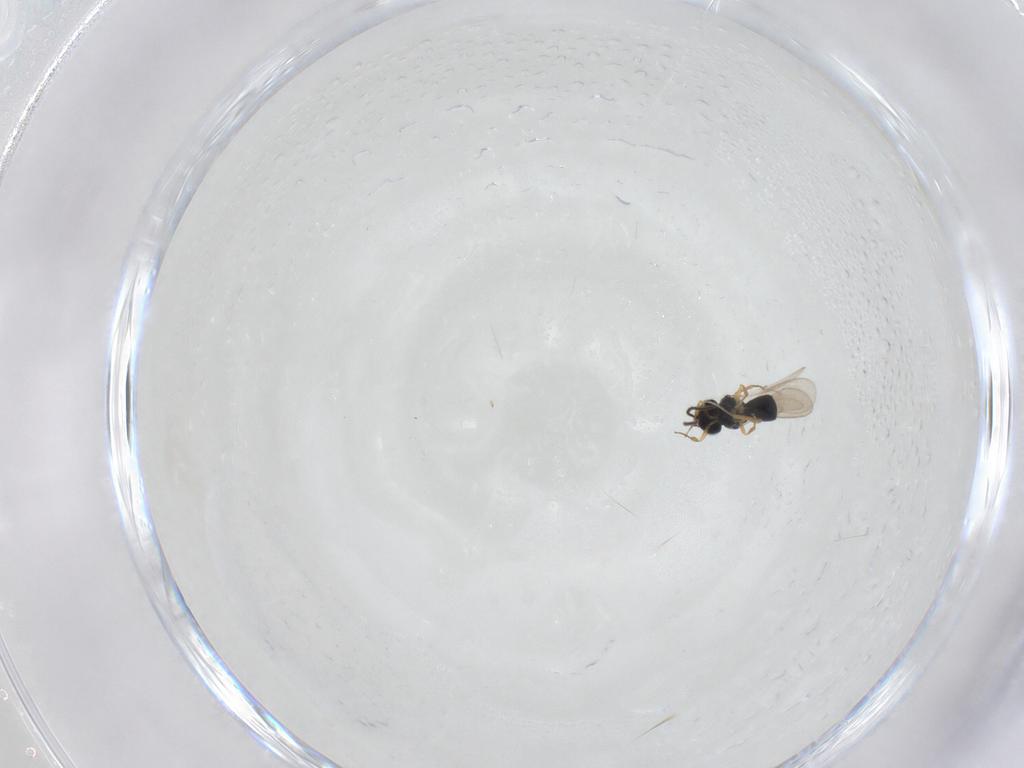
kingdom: Animalia
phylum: Arthropoda
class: Insecta
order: Hymenoptera
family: Scelionidae
